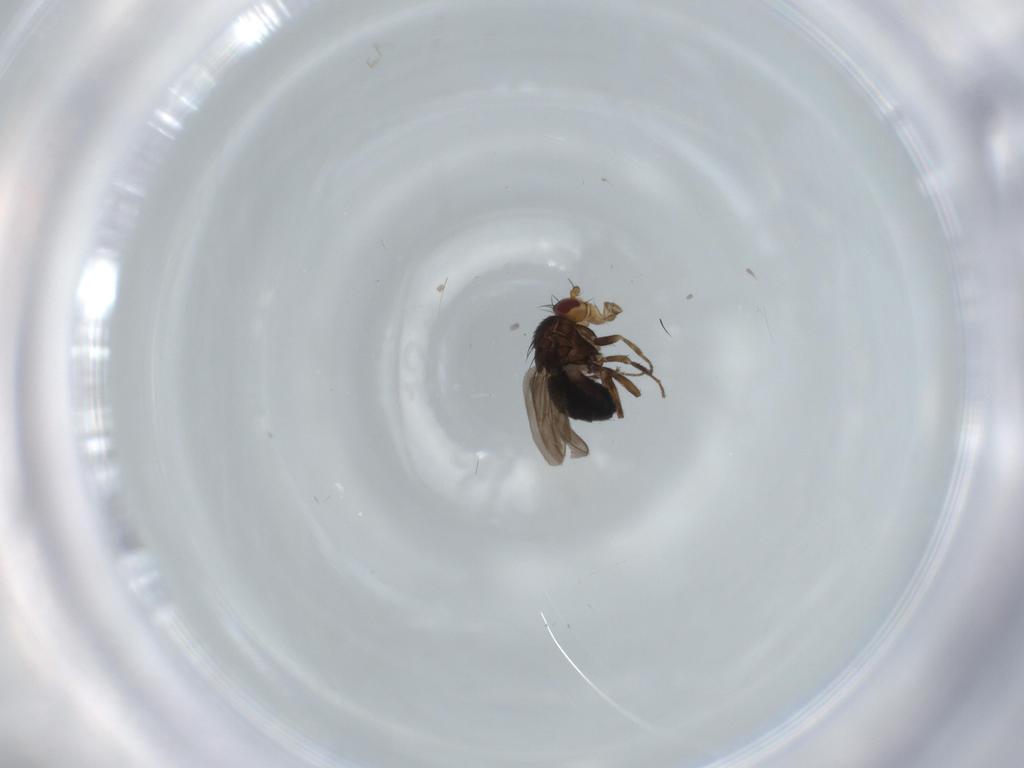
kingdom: Animalia
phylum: Arthropoda
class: Insecta
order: Diptera
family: Sphaeroceridae
